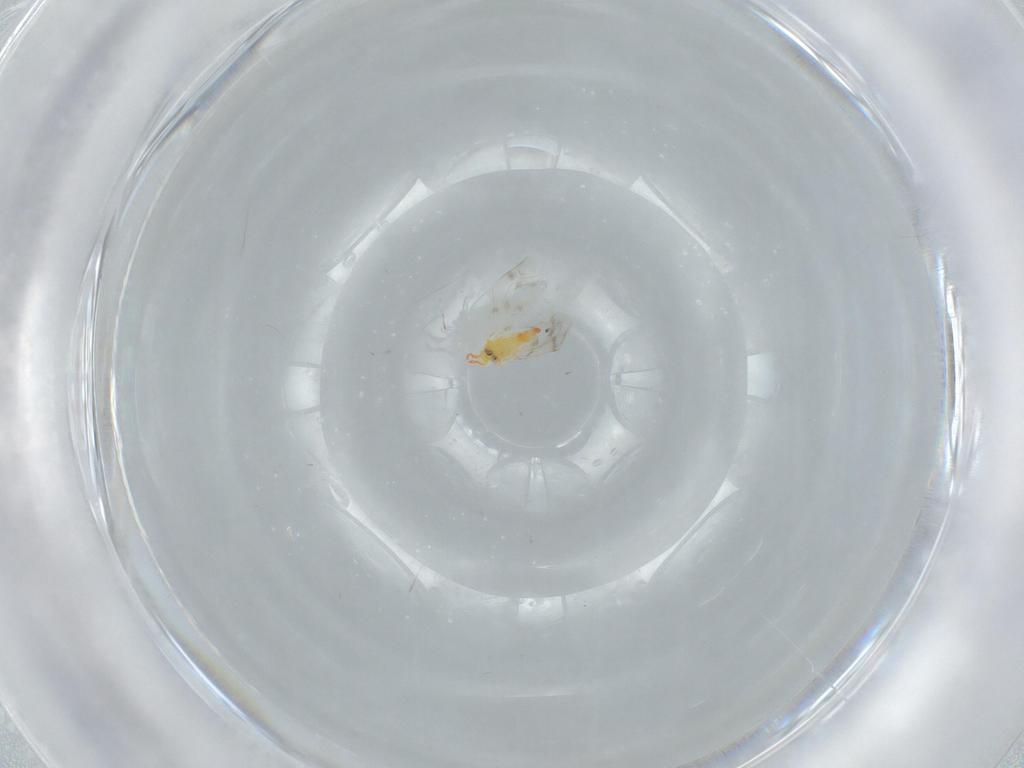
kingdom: Animalia
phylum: Arthropoda
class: Insecta
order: Hemiptera
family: Aleyrodidae
